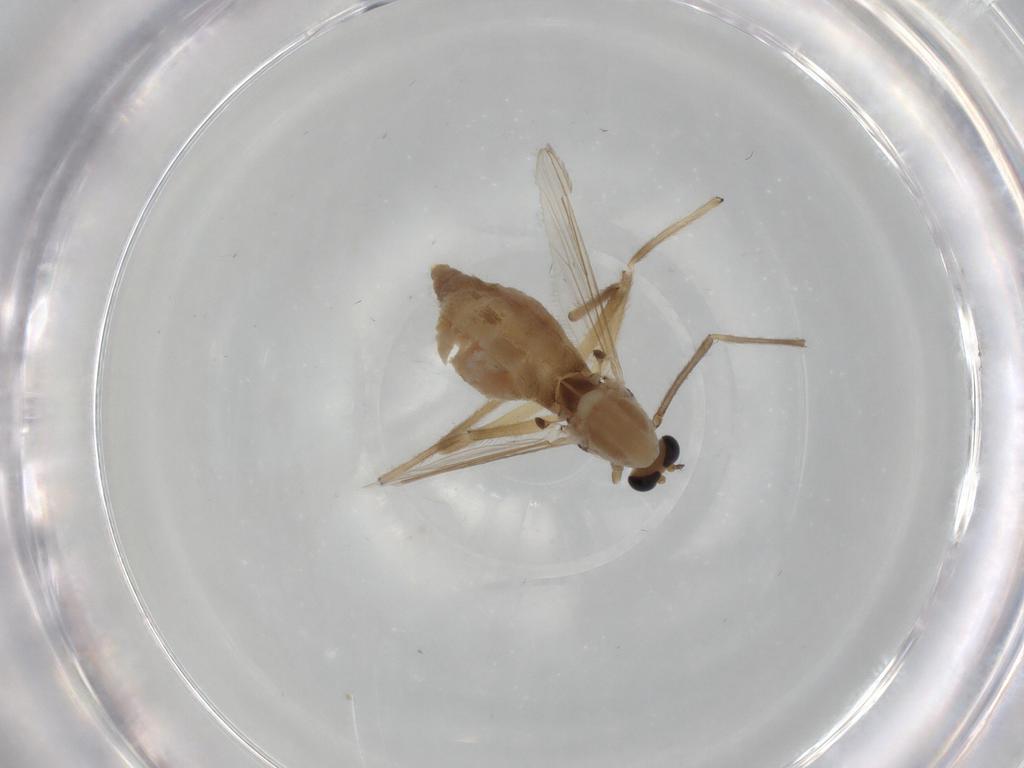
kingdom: Animalia
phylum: Arthropoda
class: Insecta
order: Diptera
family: Chironomidae
